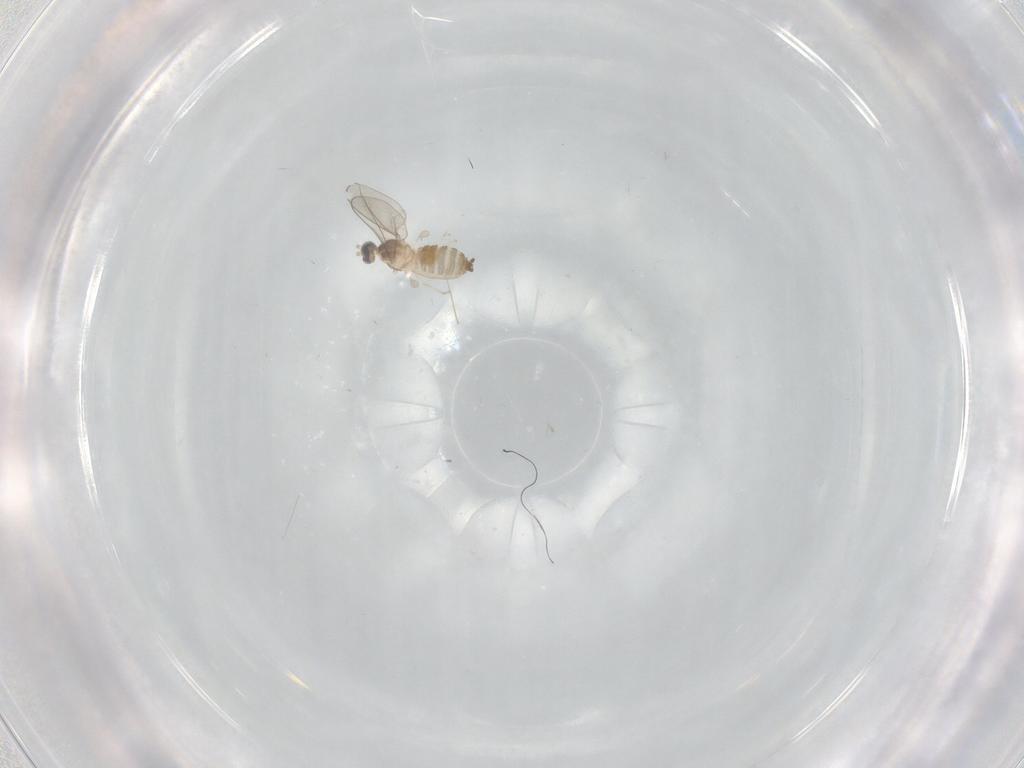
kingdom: Animalia
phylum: Arthropoda
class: Insecta
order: Diptera
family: Cecidomyiidae
